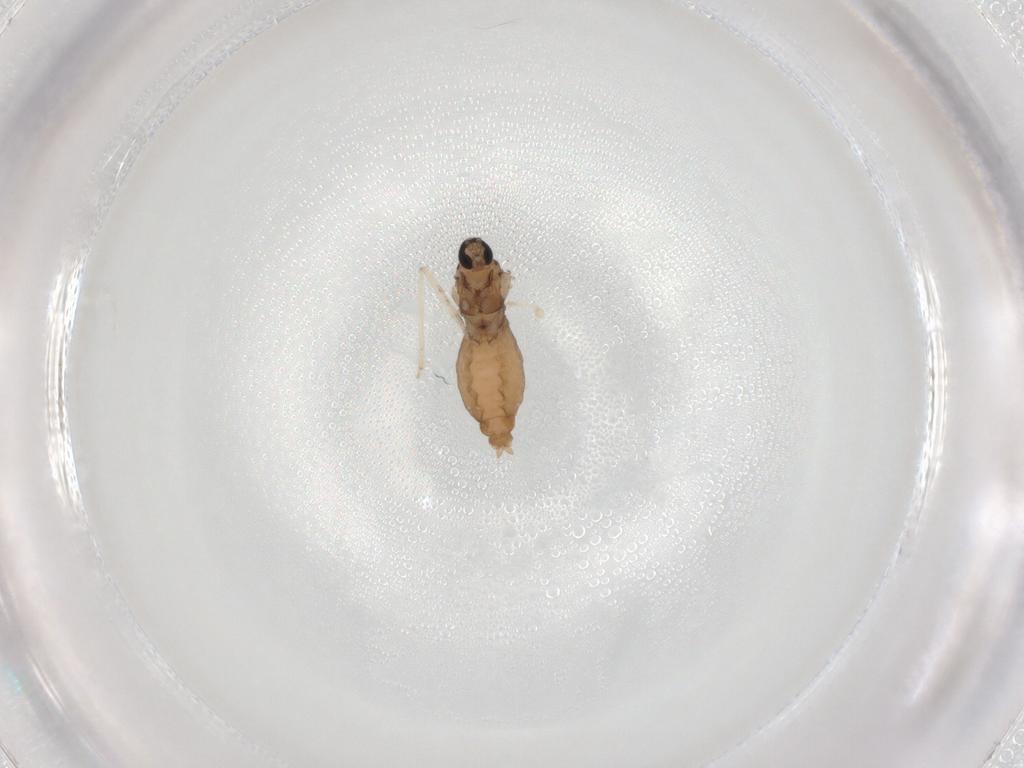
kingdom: Animalia
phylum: Arthropoda
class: Insecta
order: Diptera
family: Cecidomyiidae
